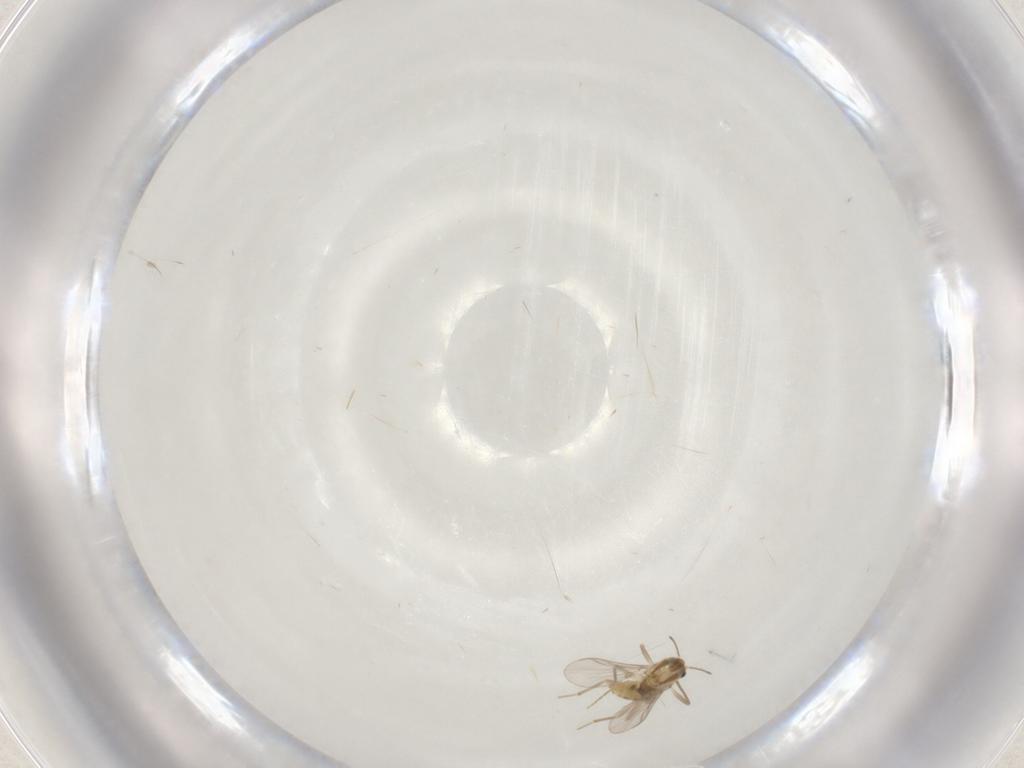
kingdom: Animalia
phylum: Arthropoda
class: Insecta
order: Diptera
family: Chironomidae
